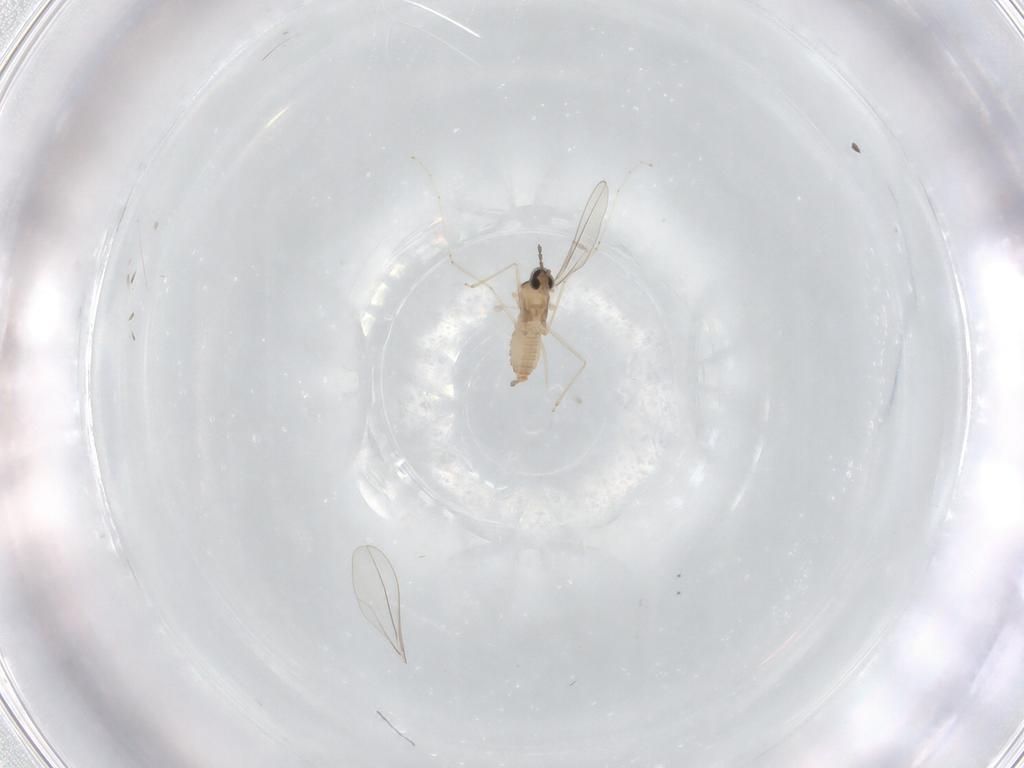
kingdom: Animalia
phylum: Arthropoda
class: Insecta
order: Diptera
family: Cecidomyiidae
